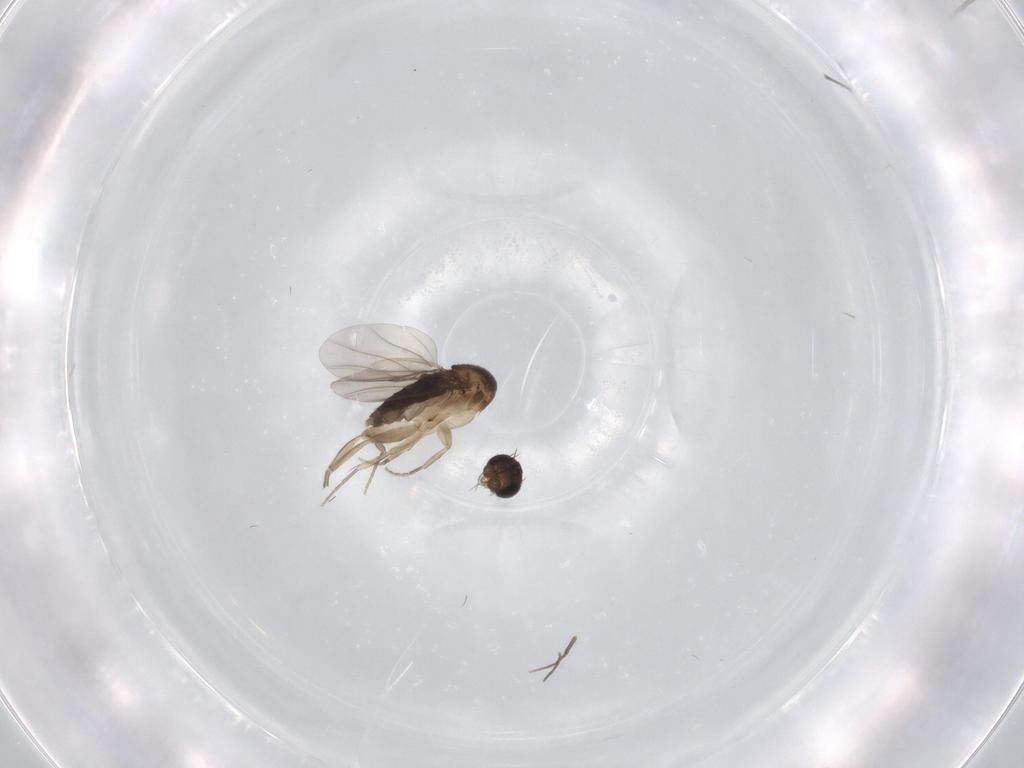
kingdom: Animalia
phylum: Arthropoda
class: Insecta
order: Diptera
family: Phoridae
